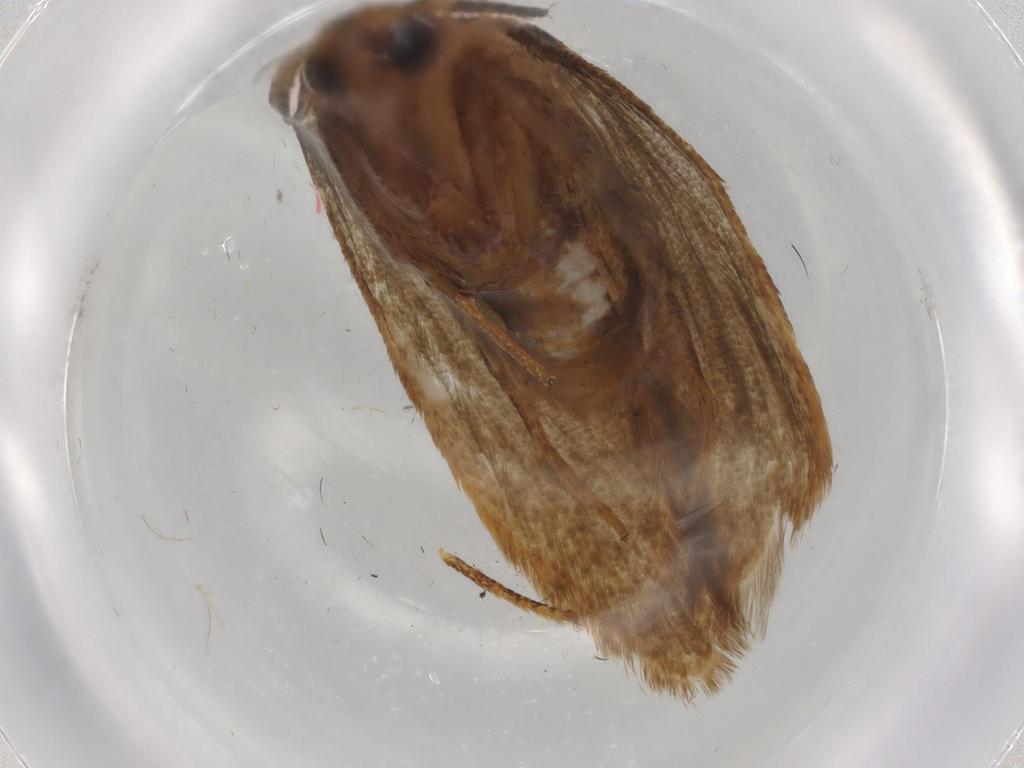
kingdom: Animalia
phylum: Arthropoda
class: Insecta
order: Lepidoptera
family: Blastobasidae
